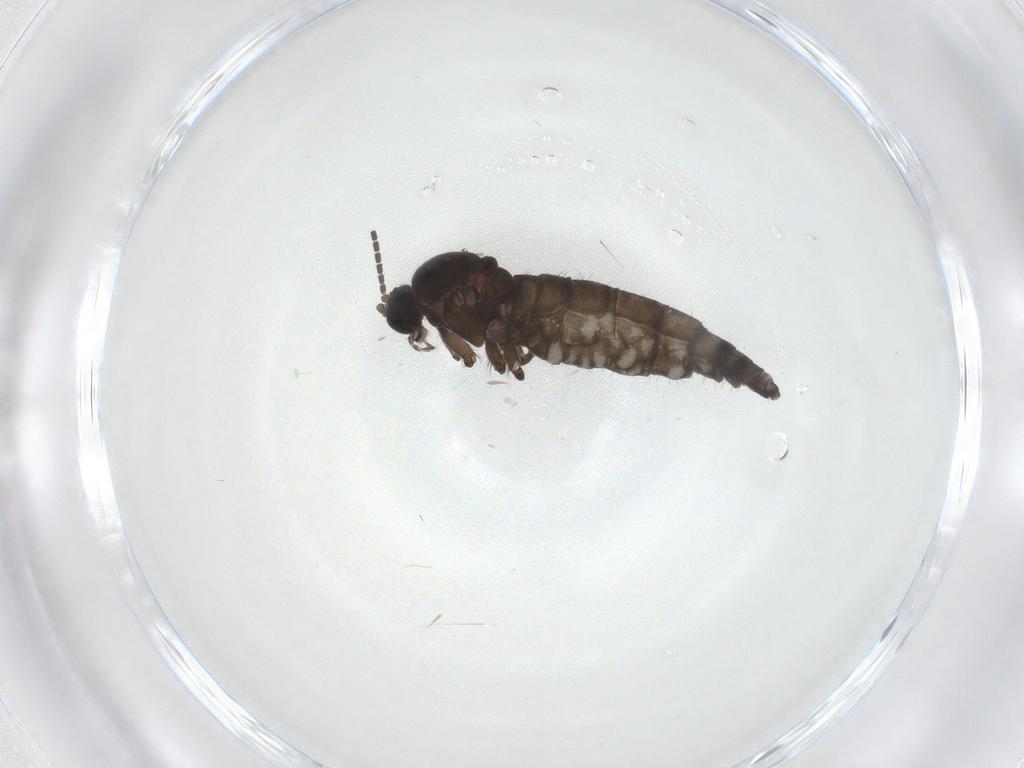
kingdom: Animalia
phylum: Arthropoda
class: Insecta
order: Diptera
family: Sciaridae
